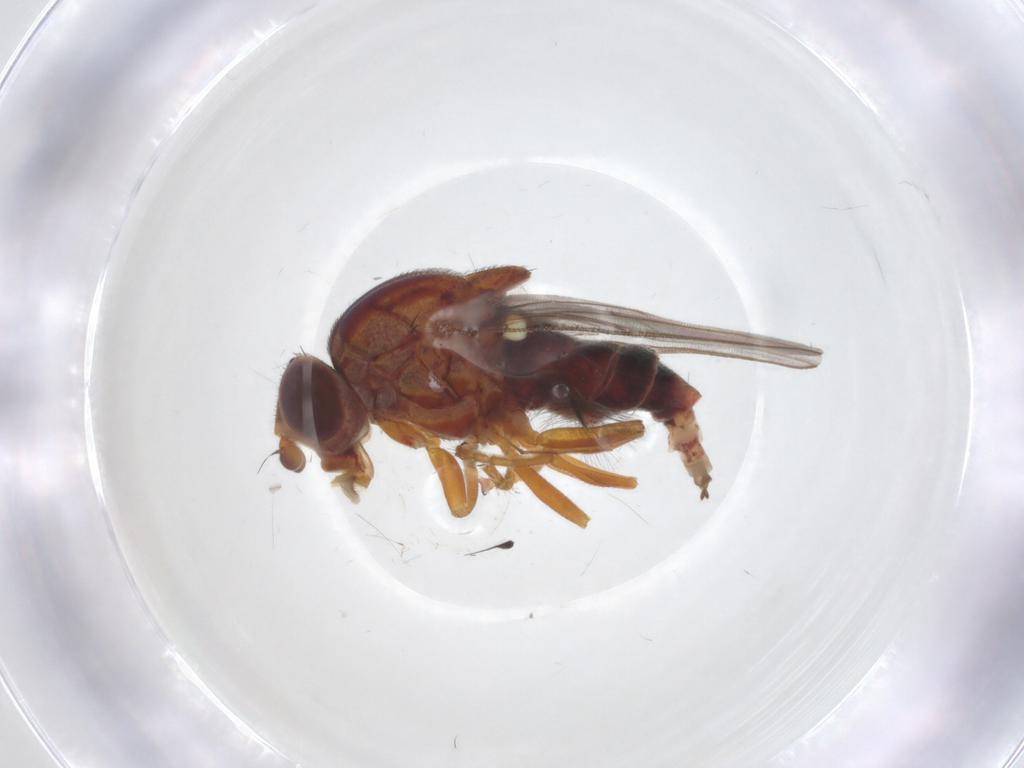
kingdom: Animalia
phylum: Arthropoda
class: Insecta
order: Diptera
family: Chloropidae
